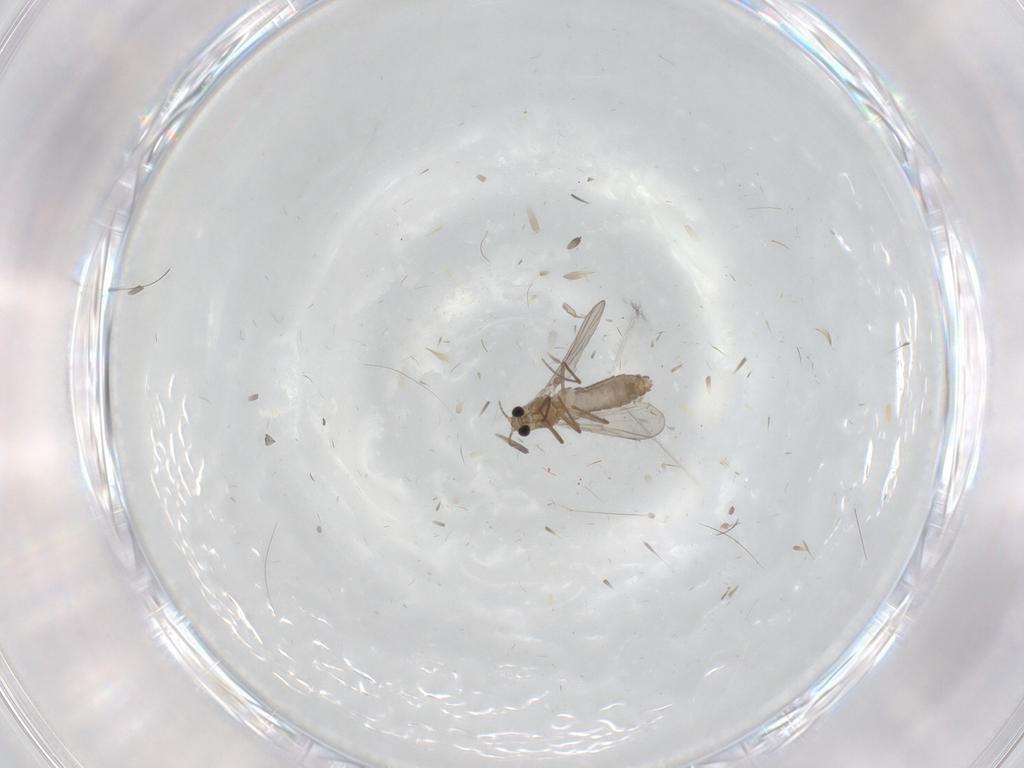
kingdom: Animalia
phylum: Arthropoda
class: Insecta
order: Diptera
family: Chironomidae
